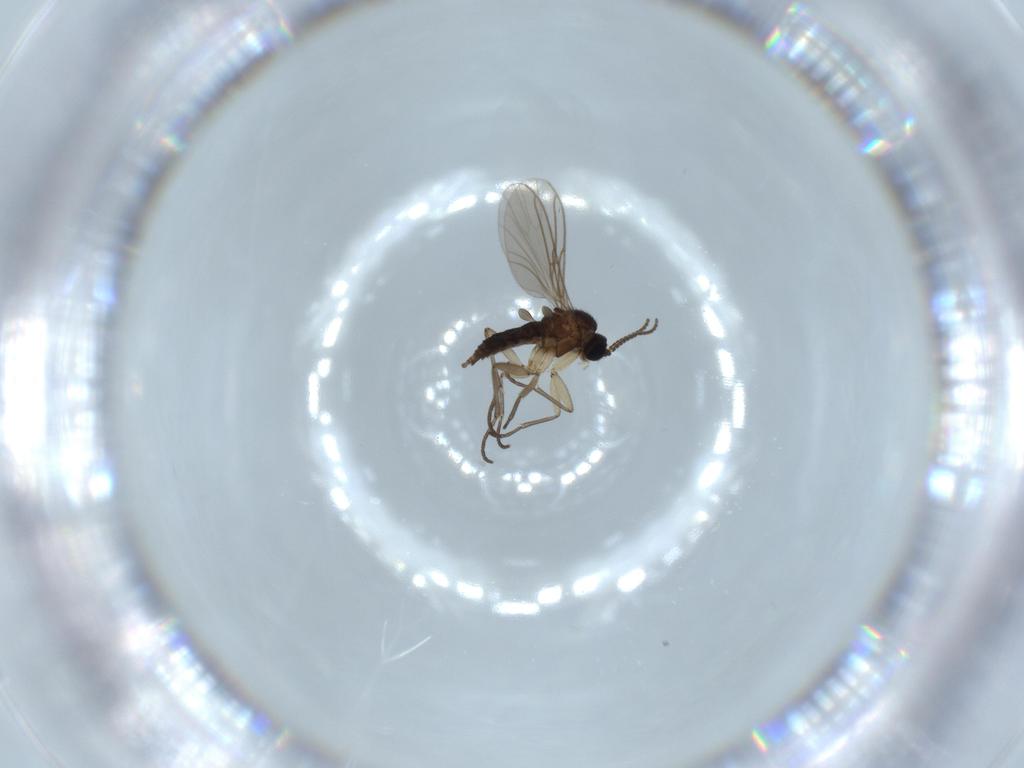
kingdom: Animalia
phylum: Arthropoda
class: Insecta
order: Diptera
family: Sciaridae
